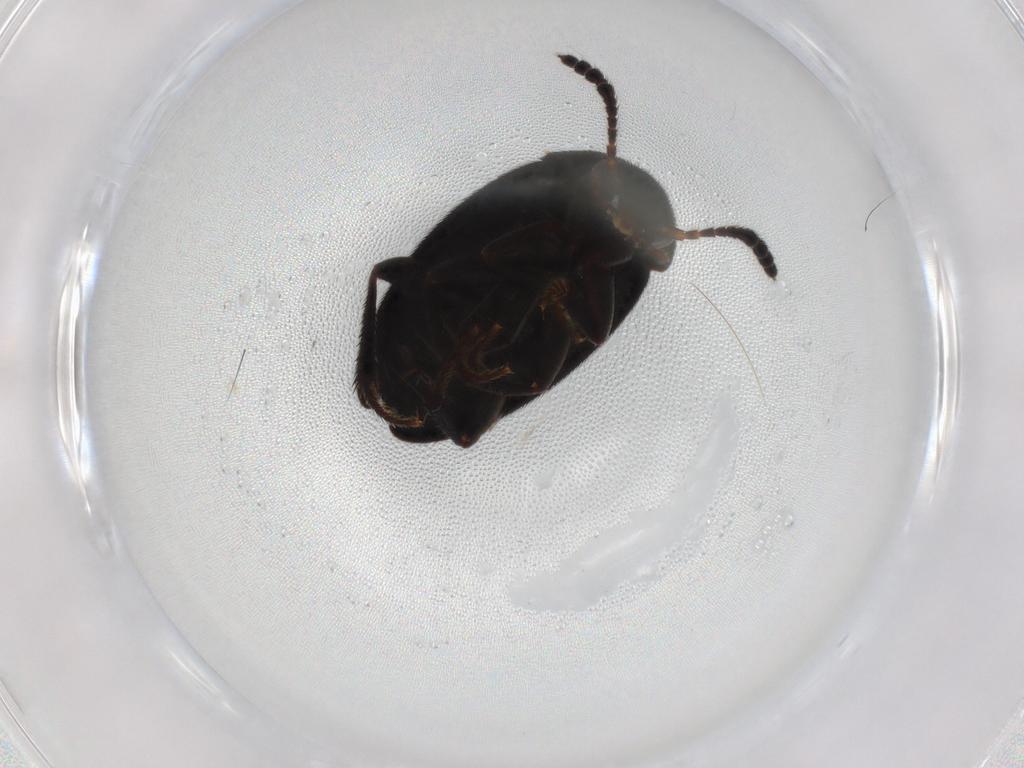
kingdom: Animalia
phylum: Arthropoda
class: Insecta
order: Coleoptera
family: Leiodidae
